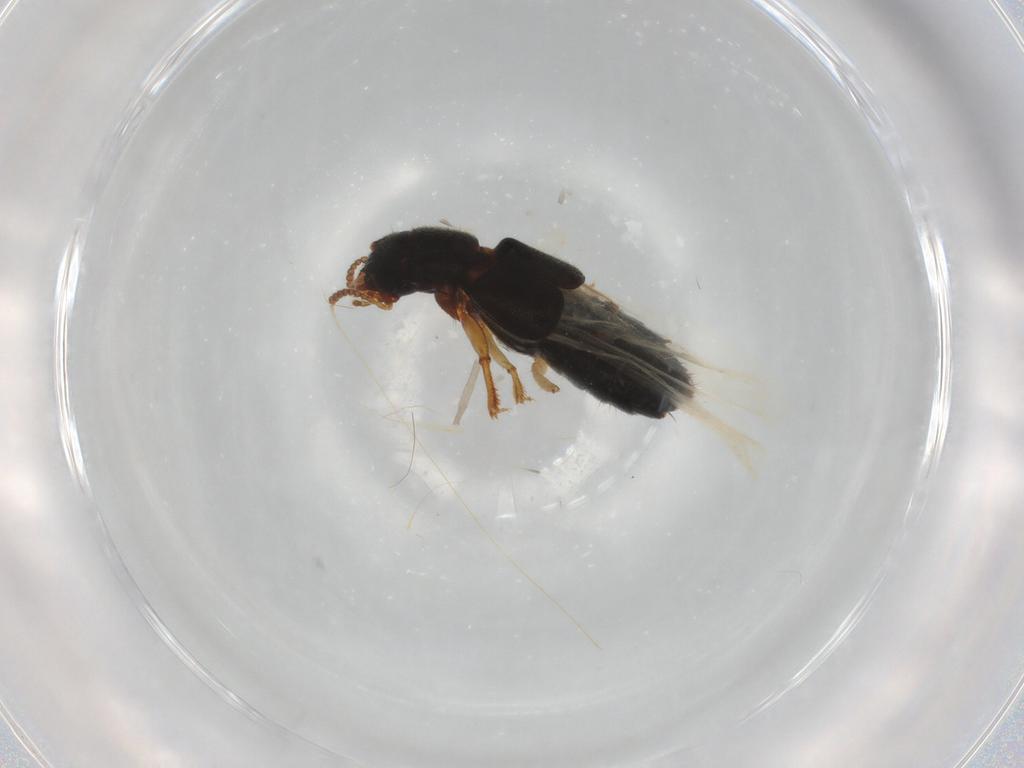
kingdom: Animalia
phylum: Arthropoda
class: Insecta
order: Coleoptera
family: Staphylinidae
